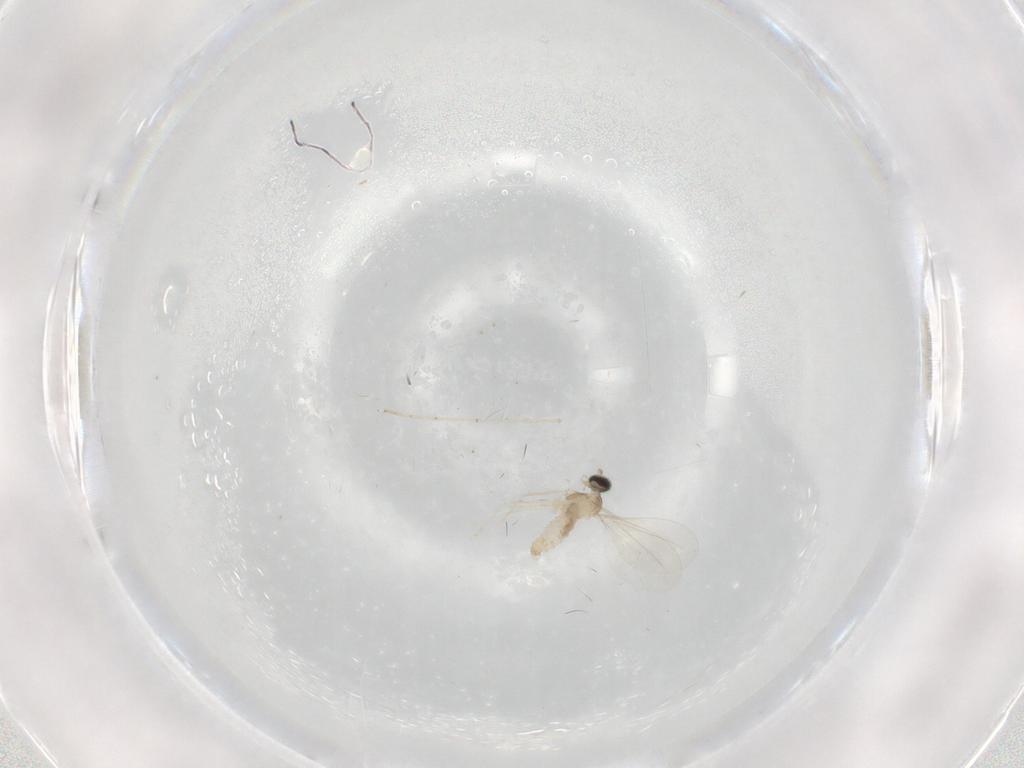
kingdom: Animalia
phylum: Arthropoda
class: Insecta
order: Diptera
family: Cecidomyiidae
